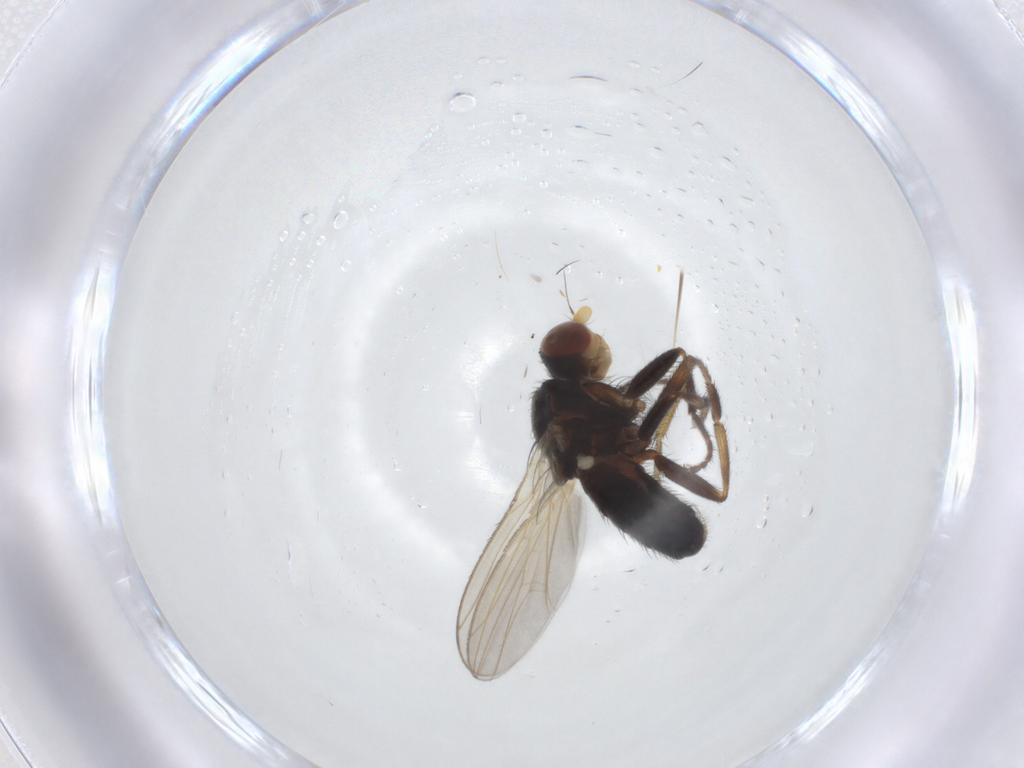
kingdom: Animalia
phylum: Arthropoda
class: Insecta
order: Diptera
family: Heleomyzidae
